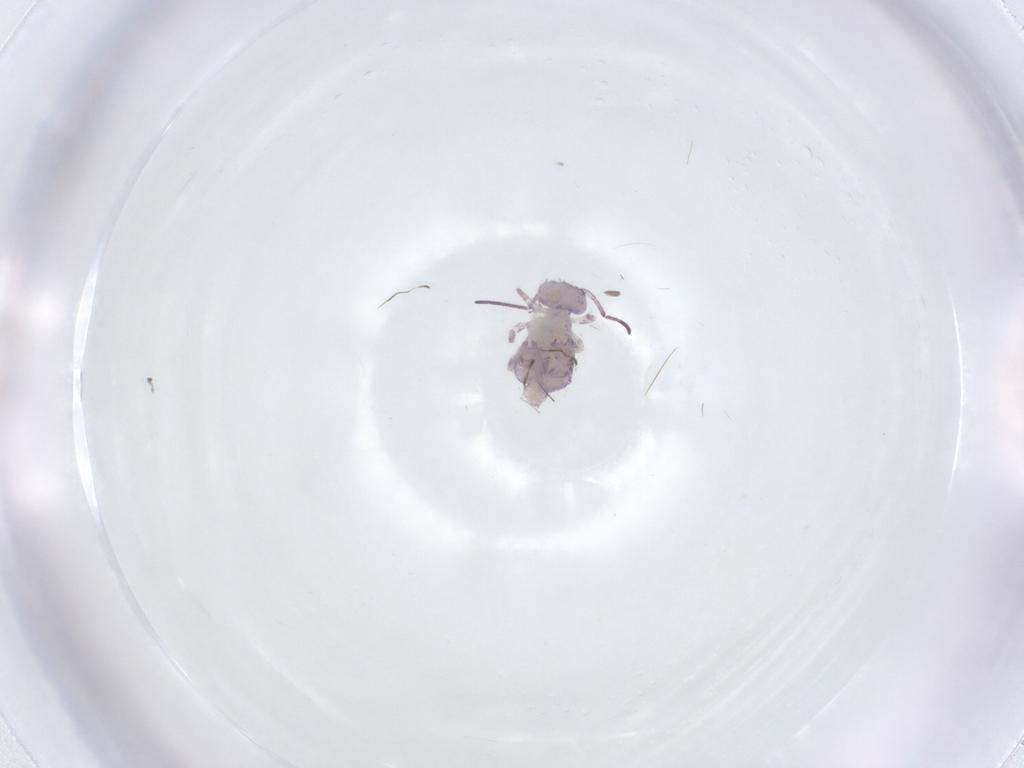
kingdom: Animalia
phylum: Arthropoda
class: Collembola
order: Symphypleona
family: Sminthuridae
